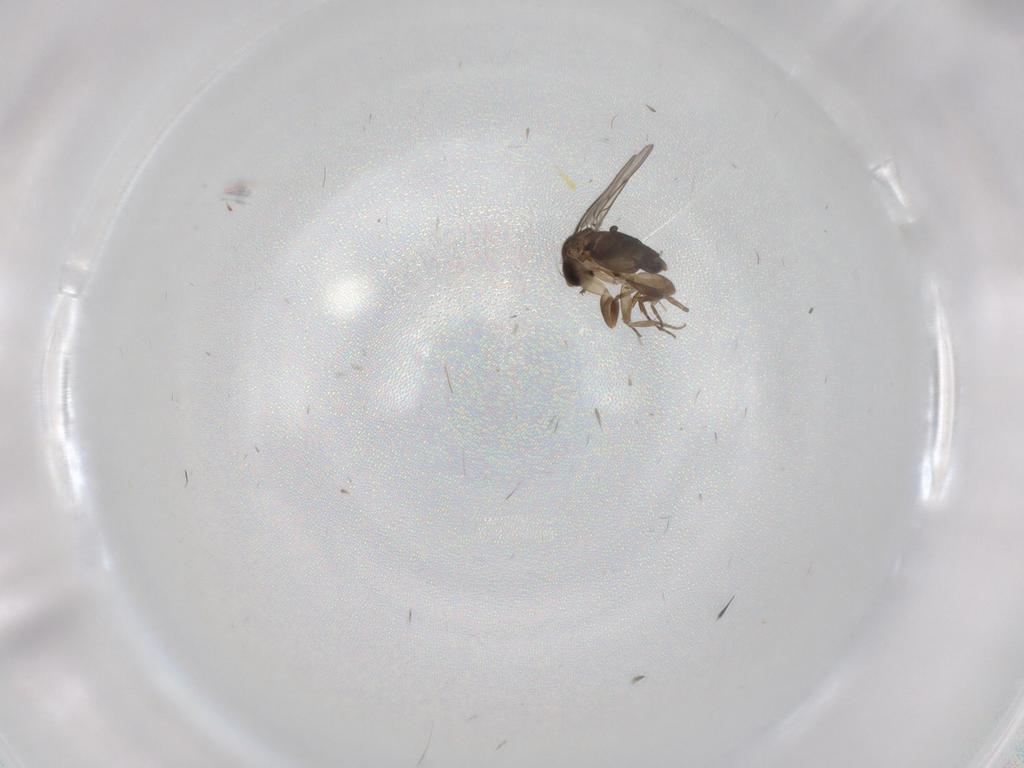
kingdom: Animalia
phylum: Arthropoda
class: Insecta
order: Diptera
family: Phoridae
